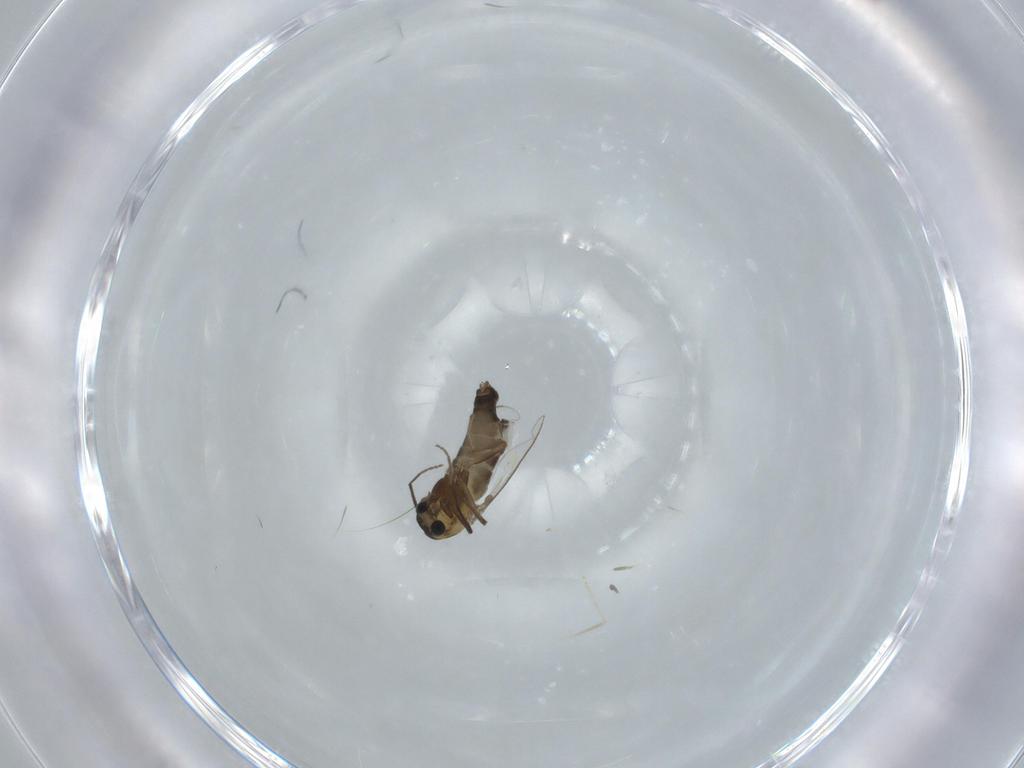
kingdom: Animalia
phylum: Arthropoda
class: Insecta
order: Diptera
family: Chironomidae
